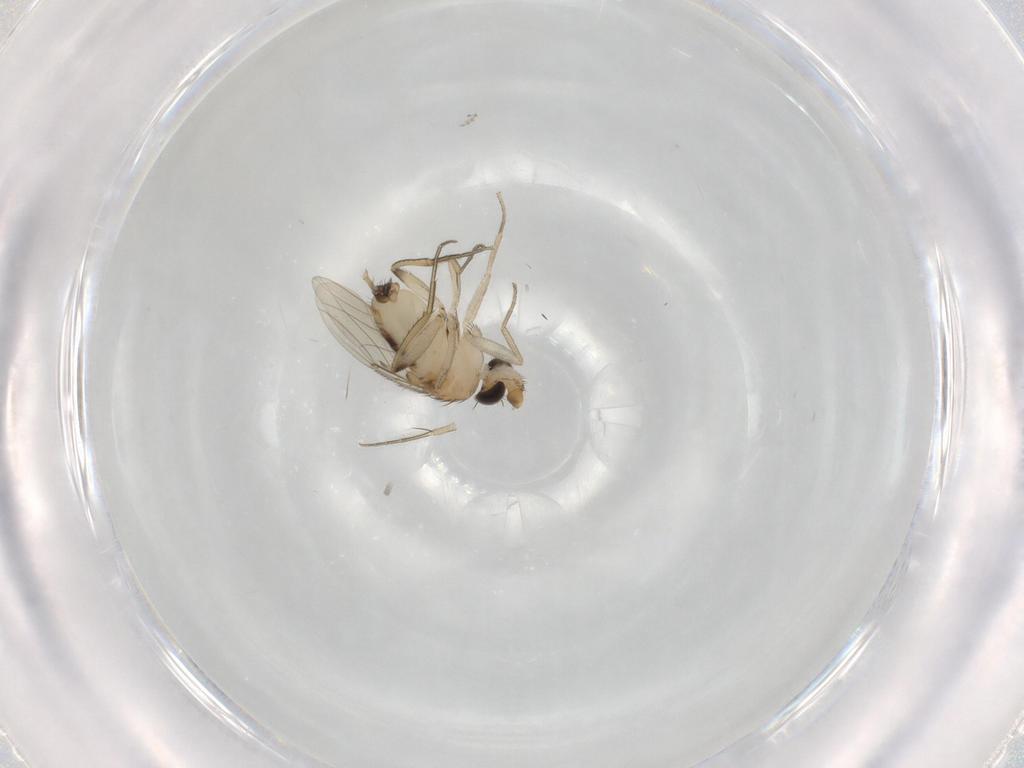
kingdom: Animalia
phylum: Arthropoda
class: Insecta
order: Diptera
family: Phoridae
